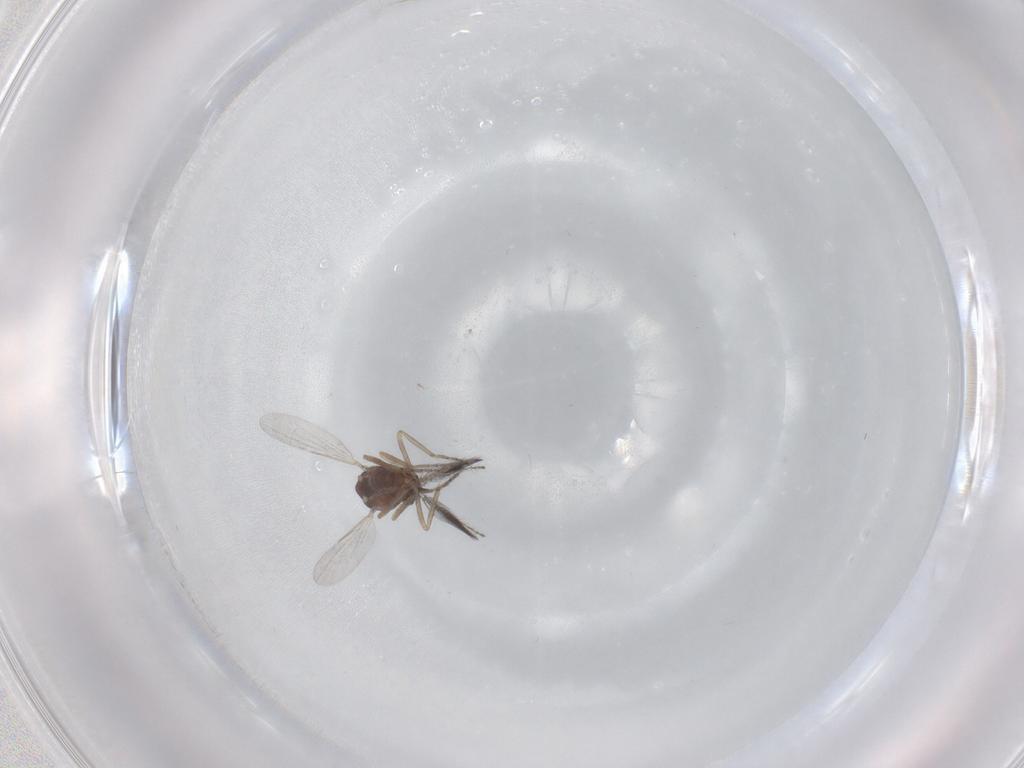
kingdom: Animalia
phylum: Arthropoda
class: Insecta
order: Diptera
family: Ceratopogonidae
